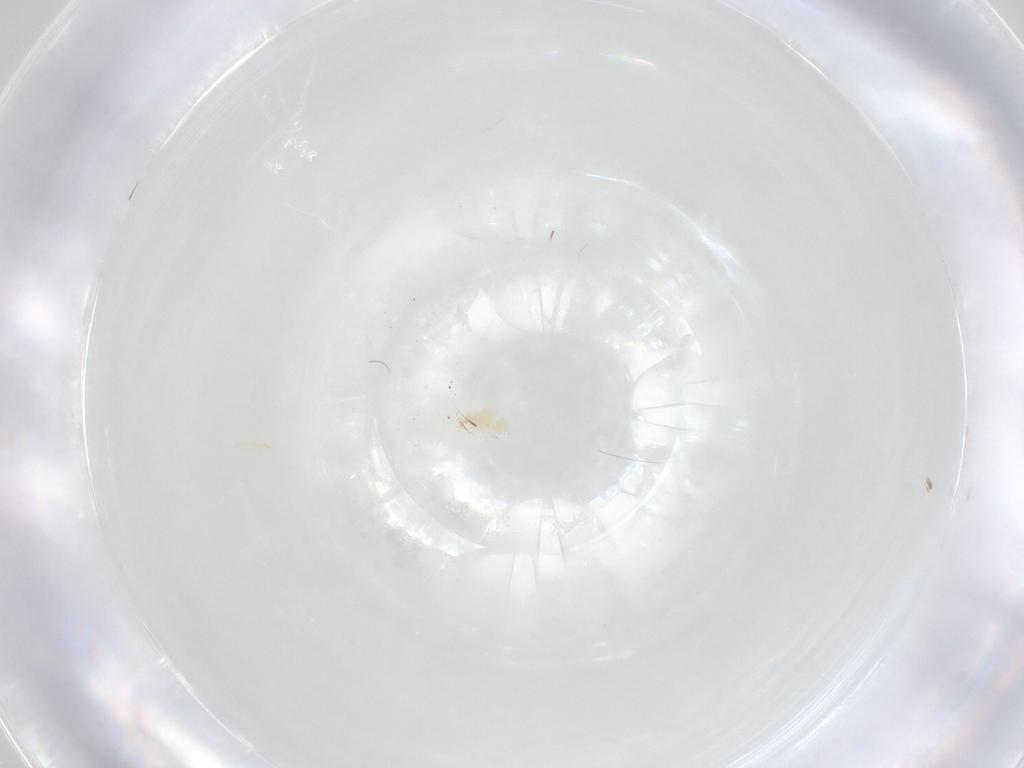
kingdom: Animalia
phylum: Arthropoda
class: Arachnida
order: Trombidiformes
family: Tetranychidae
